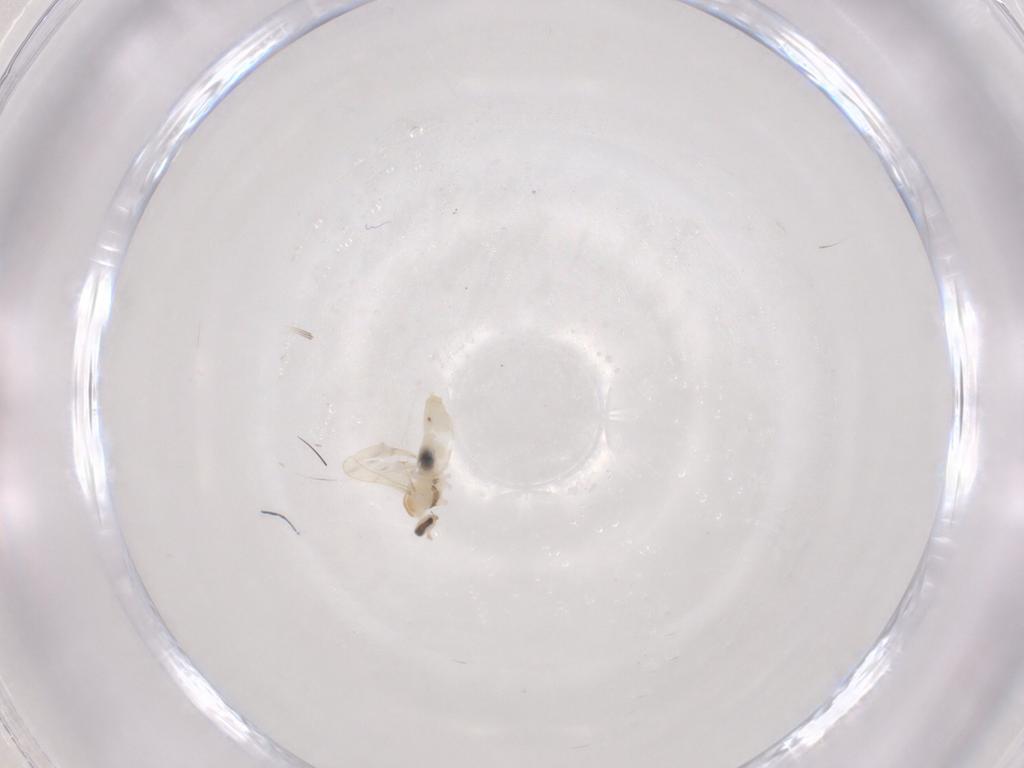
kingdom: Animalia
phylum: Arthropoda
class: Insecta
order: Diptera
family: Cecidomyiidae
